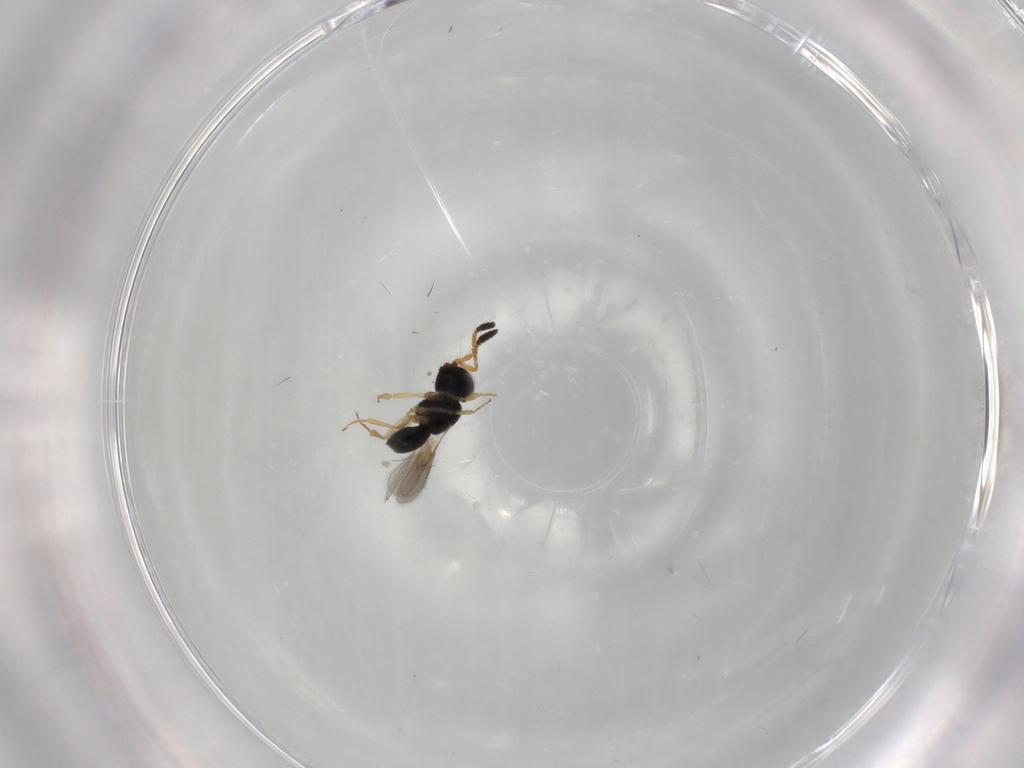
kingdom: Animalia
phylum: Arthropoda
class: Insecta
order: Hymenoptera
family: Scelionidae
